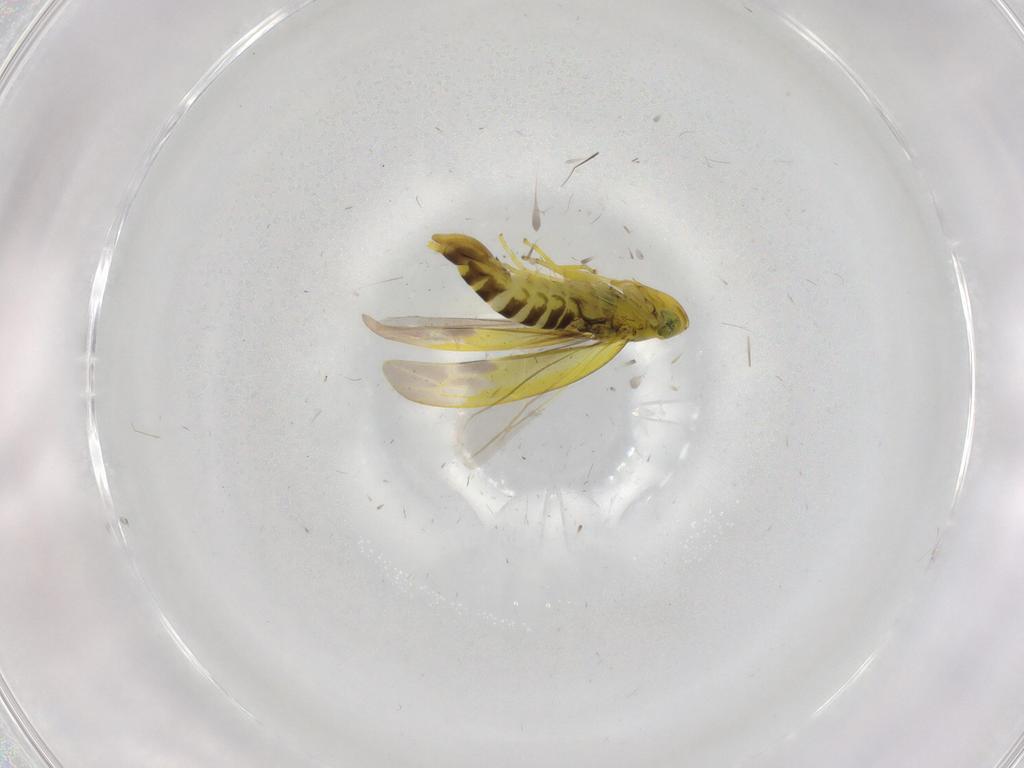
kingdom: Animalia
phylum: Arthropoda
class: Insecta
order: Hemiptera
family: Cicadellidae
